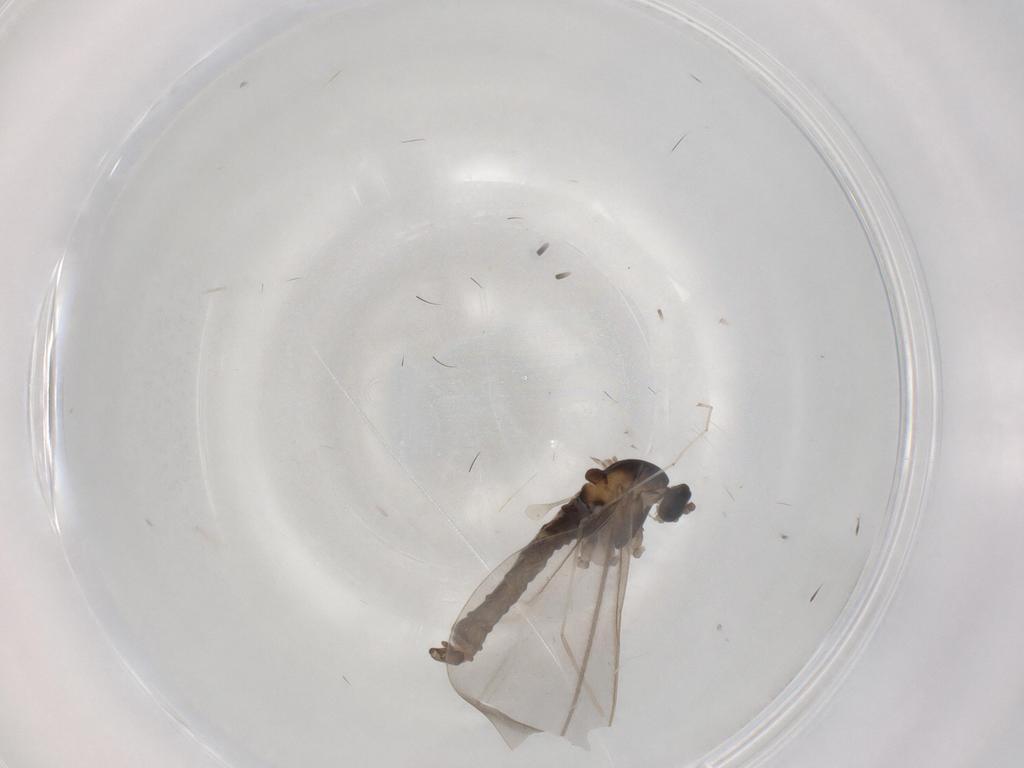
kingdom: Animalia
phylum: Arthropoda
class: Insecta
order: Diptera
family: Cecidomyiidae
